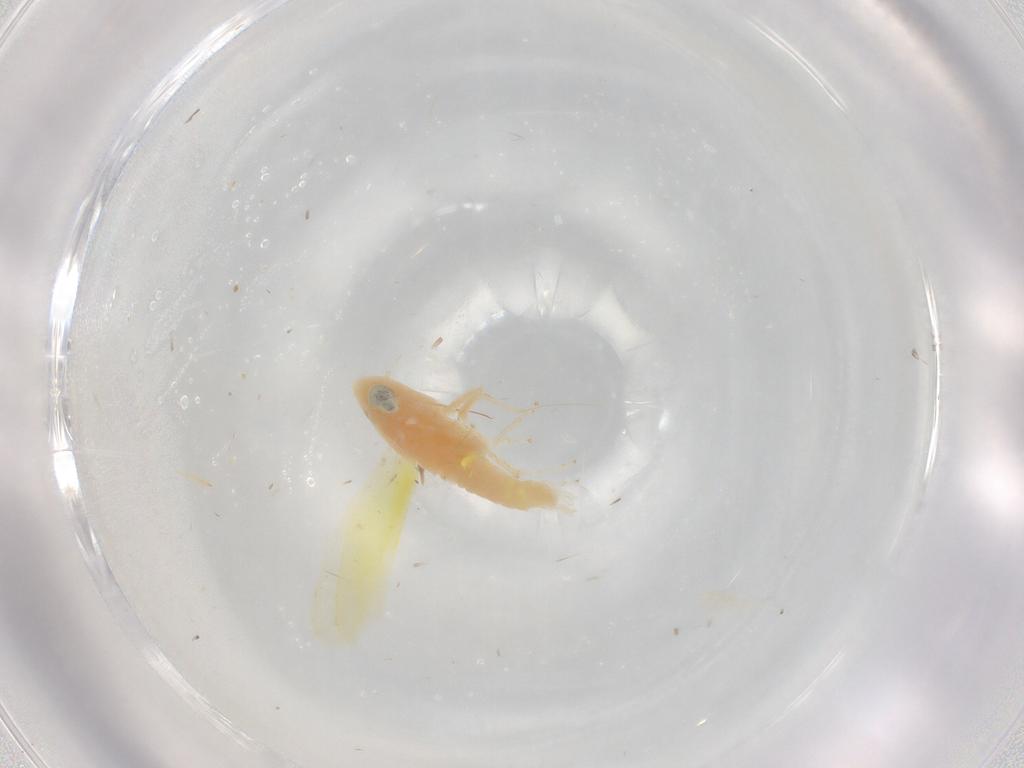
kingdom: Animalia
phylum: Arthropoda
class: Insecta
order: Hemiptera
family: Cicadellidae
